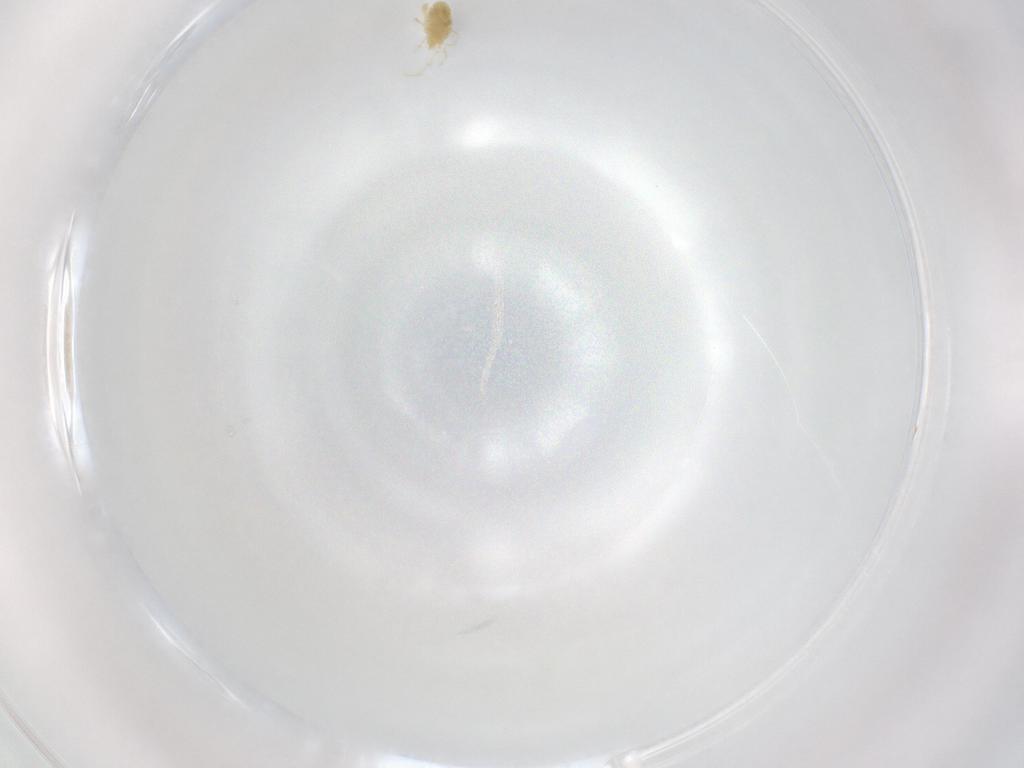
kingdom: Animalia
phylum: Arthropoda
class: Arachnida
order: Trombidiformes
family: Eupodidae
